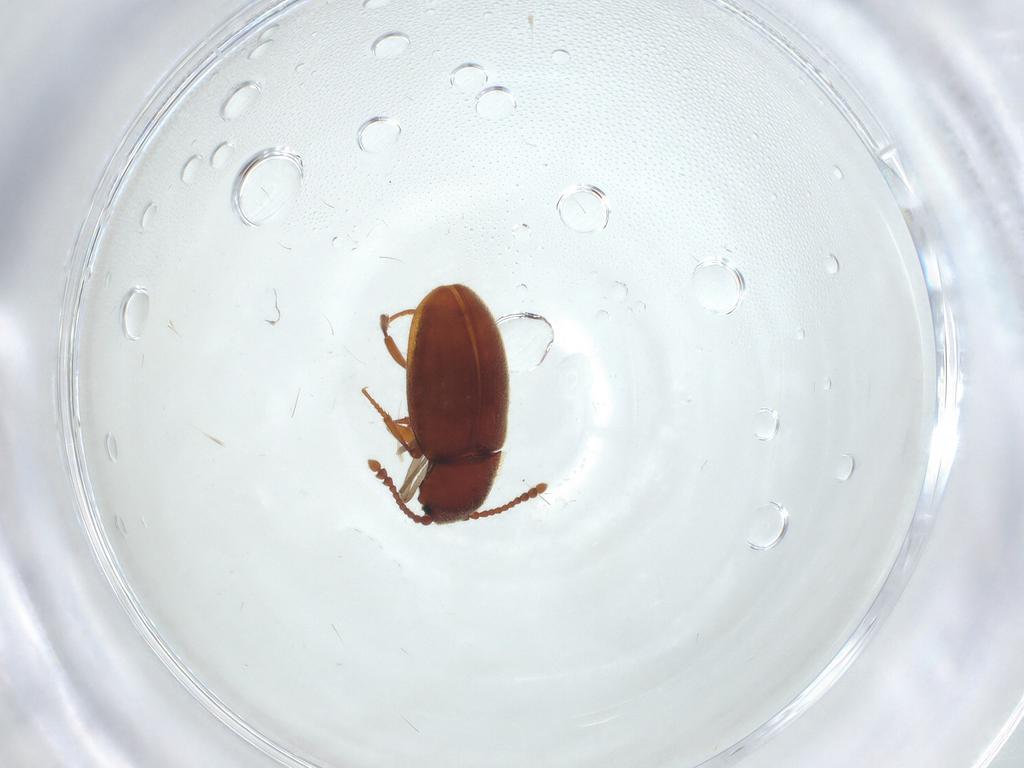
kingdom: Animalia
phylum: Arthropoda
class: Insecta
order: Coleoptera
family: Cryptophagidae
